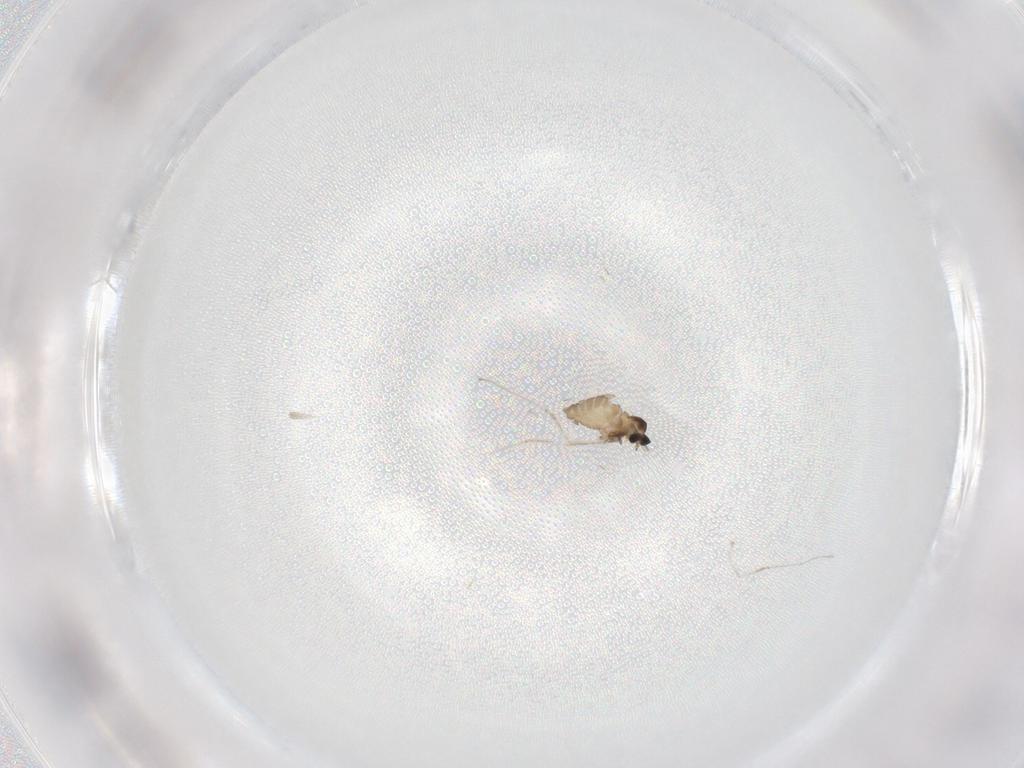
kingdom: Animalia
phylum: Arthropoda
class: Insecta
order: Diptera
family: Cecidomyiidae
